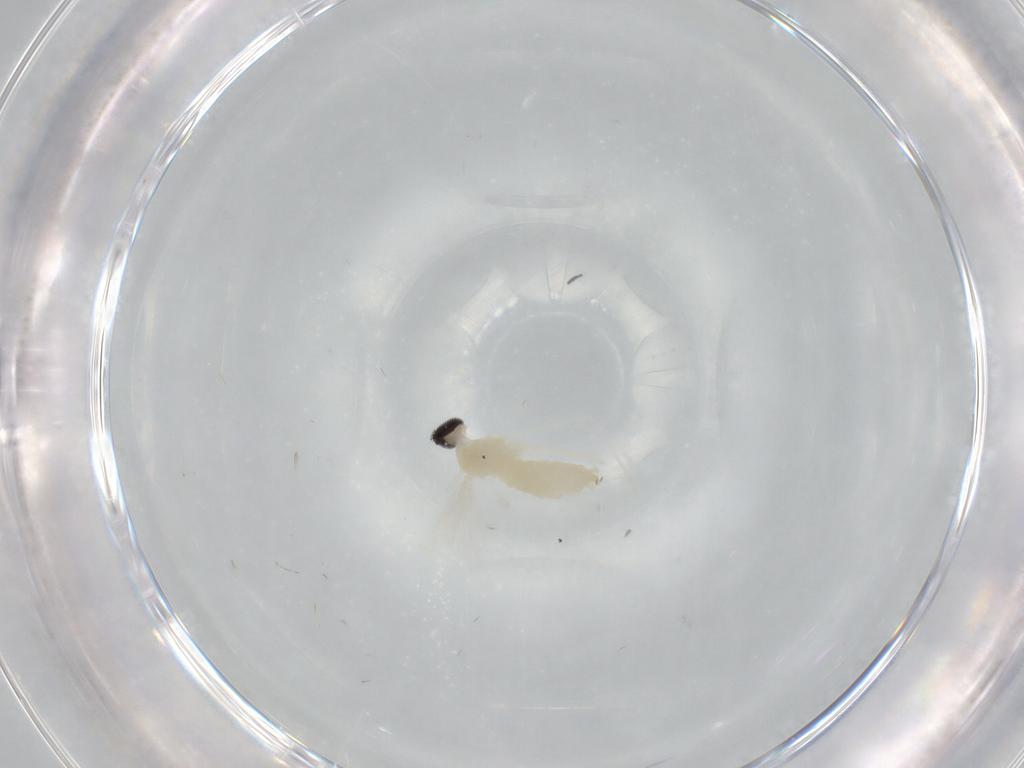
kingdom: Animalia
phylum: Arthropoda
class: Insecta
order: Diptera
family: Cecidomyiidae
